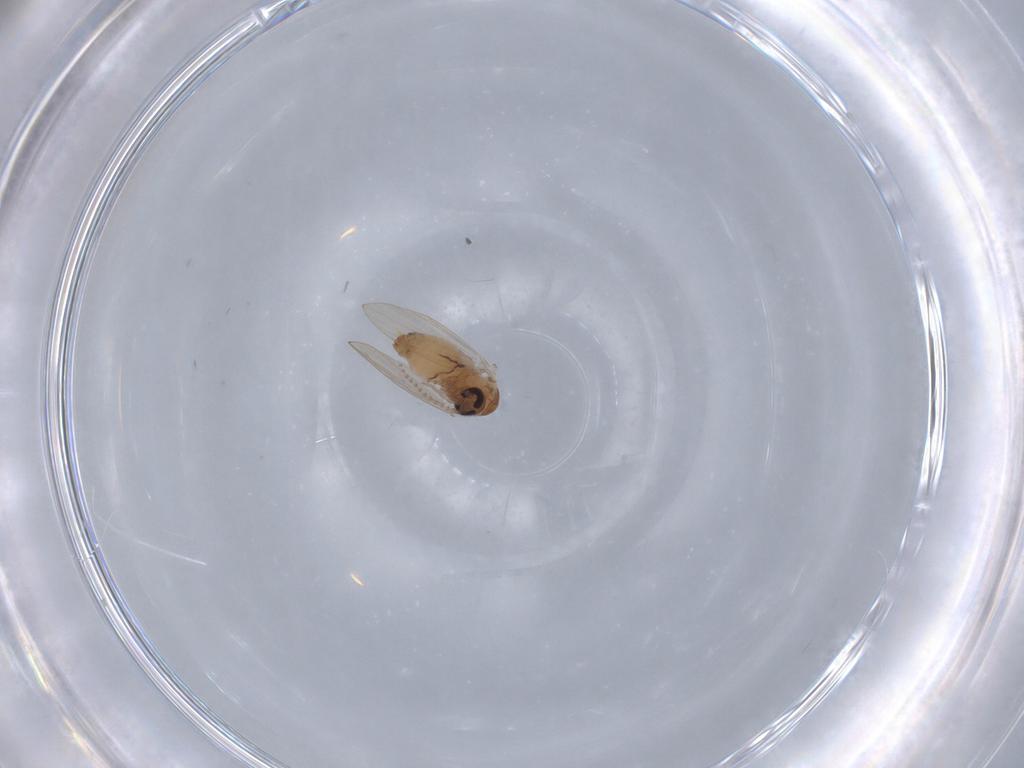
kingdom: Animalia
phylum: Arthropoda
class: Insecta
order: Diptera
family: Psychodidae
